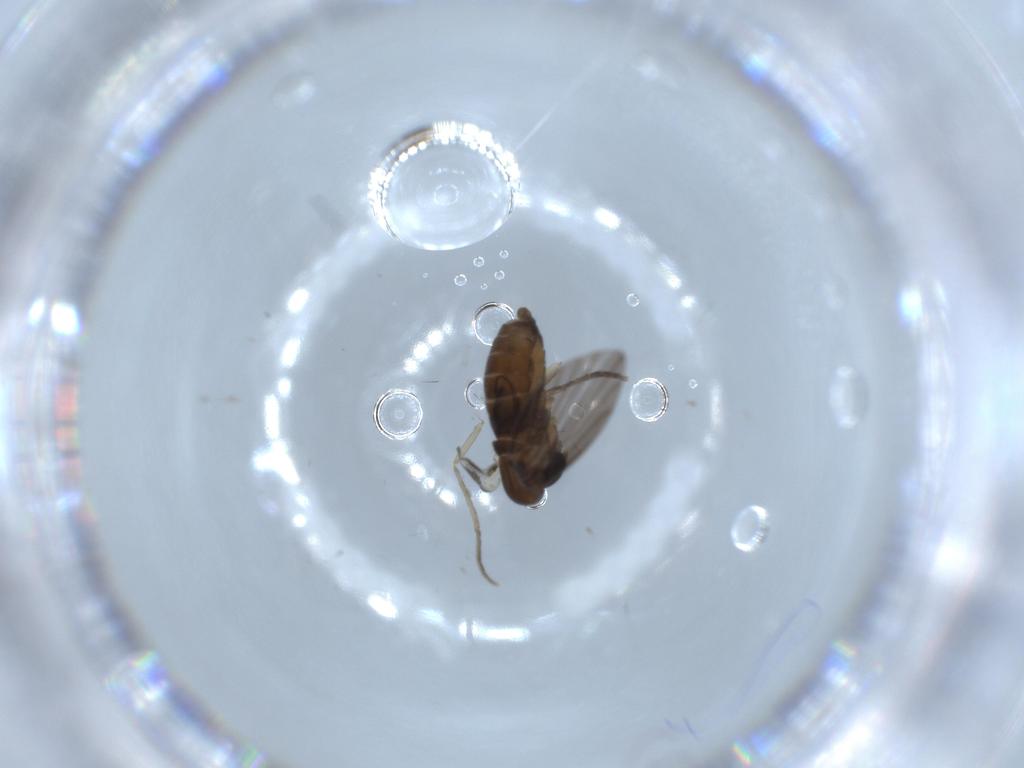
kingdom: Animalia
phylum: Arthropoda
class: Insecta
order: Diptera
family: Psychodidae
